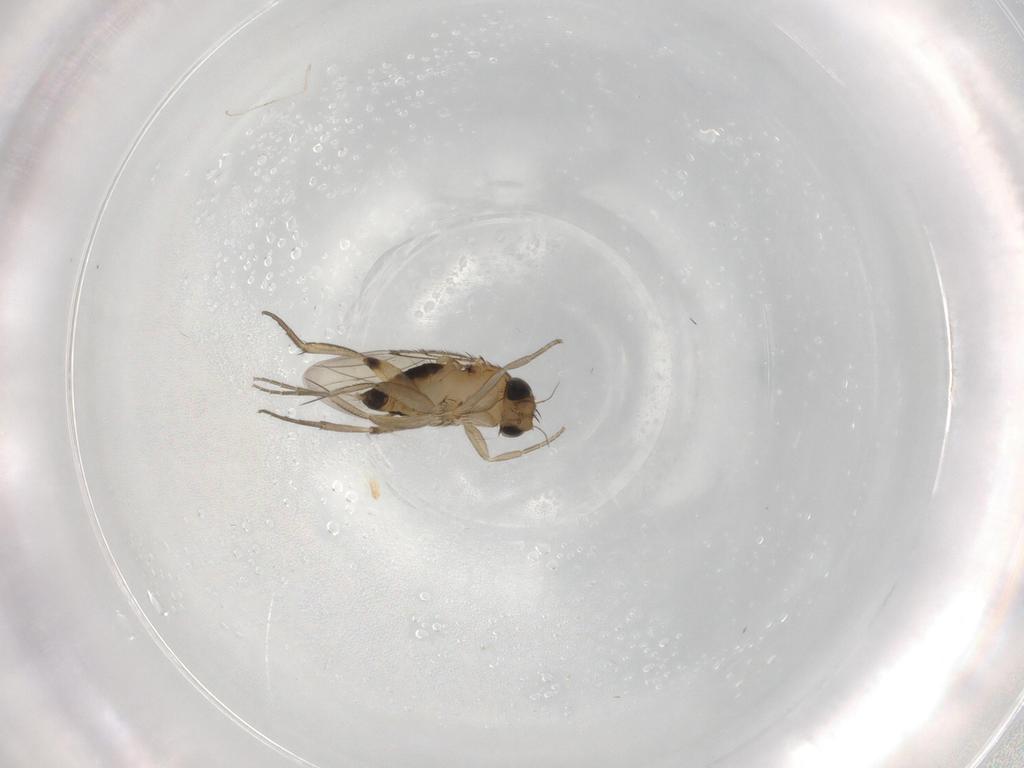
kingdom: Animalia
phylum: Arthropoda
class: Insecta
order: Diptera
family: Phoridae
